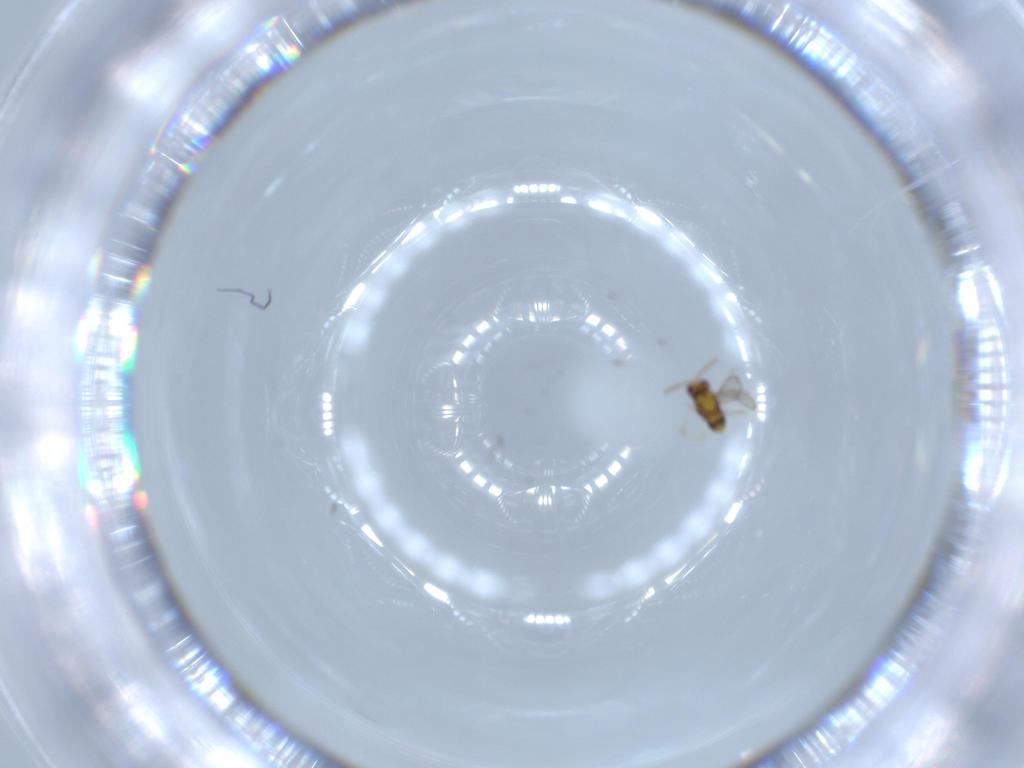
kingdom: Animalia
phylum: Arthropoda
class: Insecta
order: Hymenoptera
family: Aphelinidae
